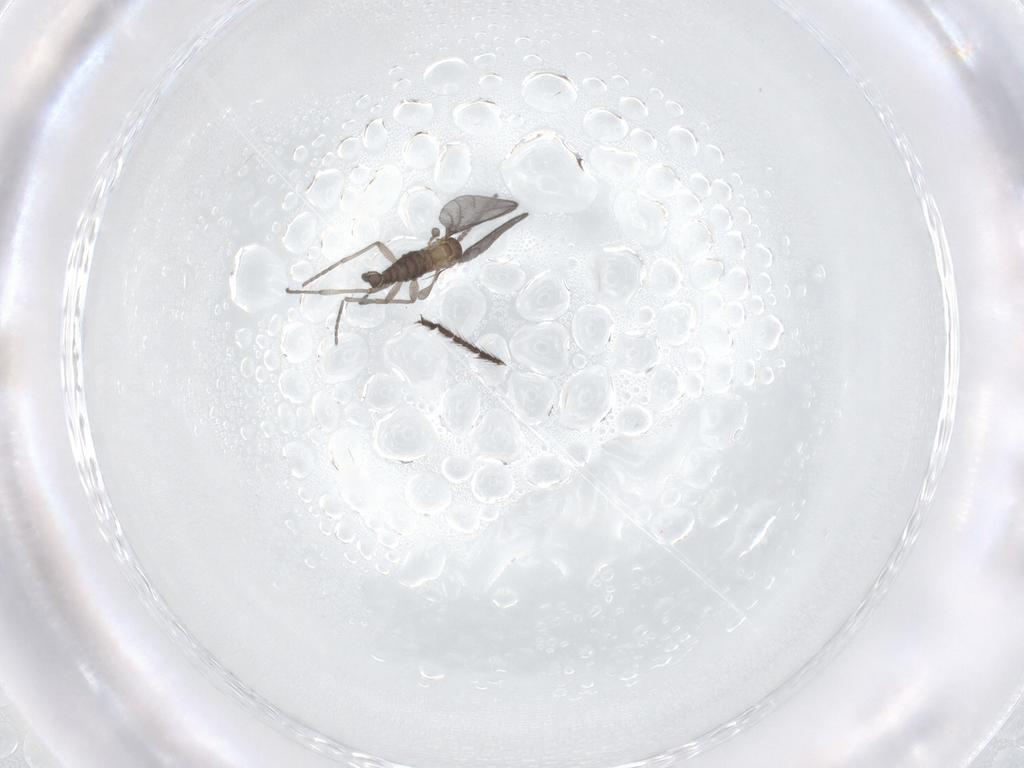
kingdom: Animalia
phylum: Arthropoda
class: Insecta
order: Diptera
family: Sciaridae
